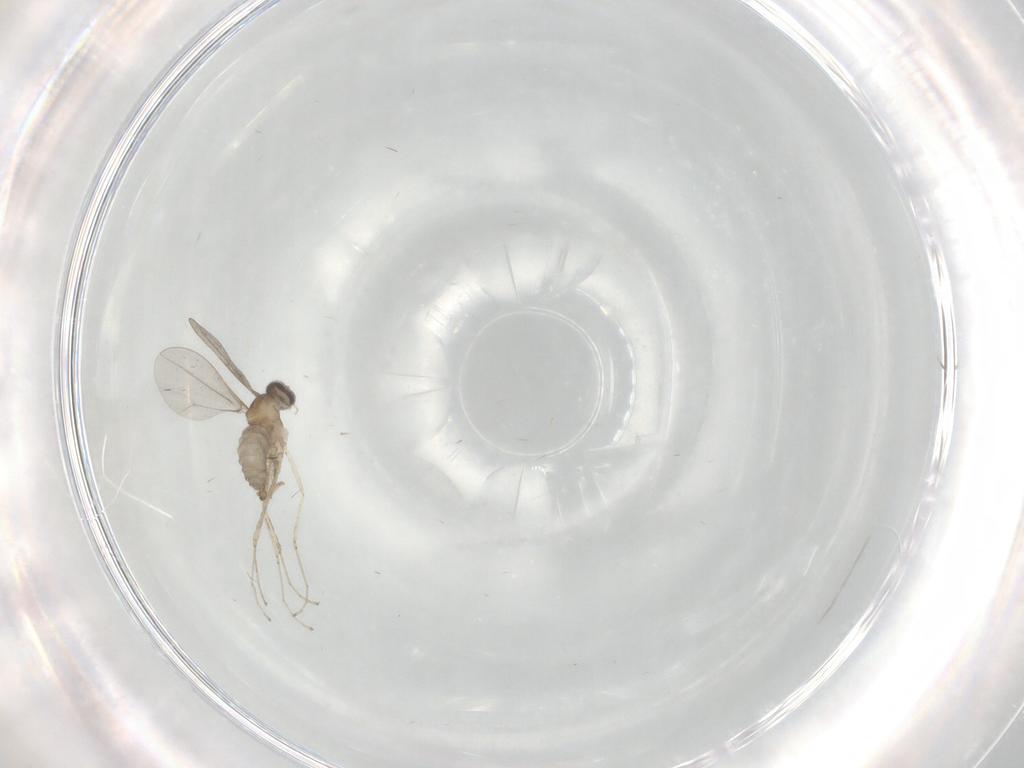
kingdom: Animalia
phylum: Arthropoda
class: Insecta
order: Diptera
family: Cecidomyiidae
